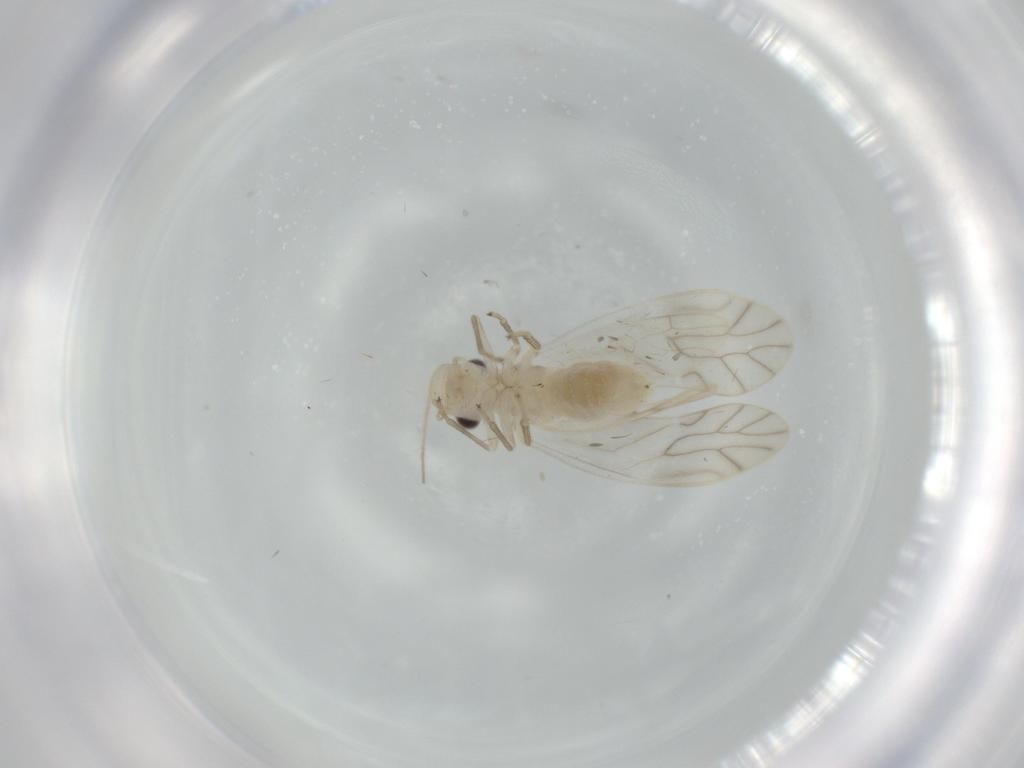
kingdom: Animalia
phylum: Arthropoda
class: Insecta
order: Psocodea
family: Caeciliusidae
